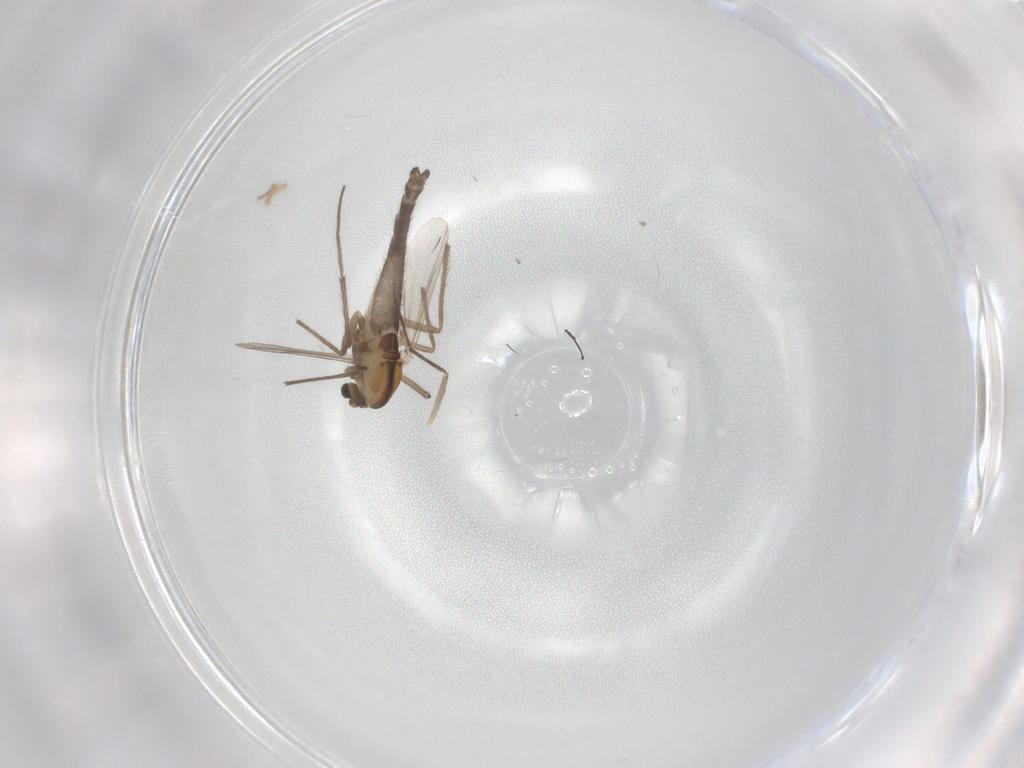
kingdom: Animalia
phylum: Arthropoda
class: Insecta
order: Diptera
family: Chironomidae
